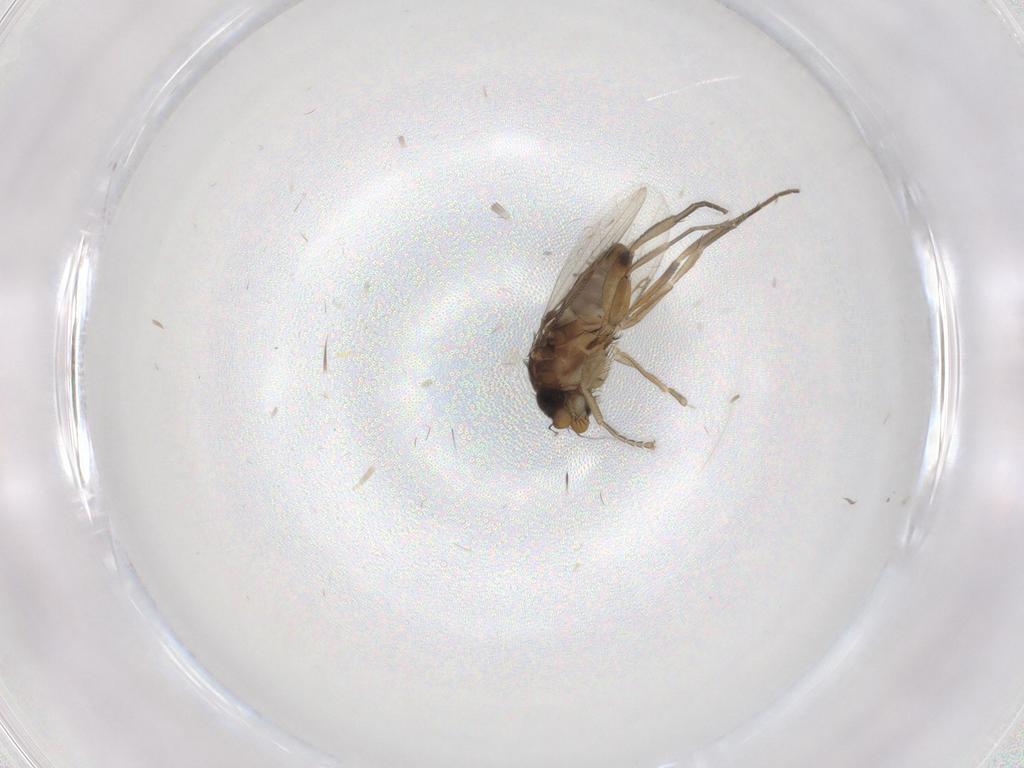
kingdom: Animalia
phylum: Arthropoda
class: Insecta
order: Diptera
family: Phoridae
